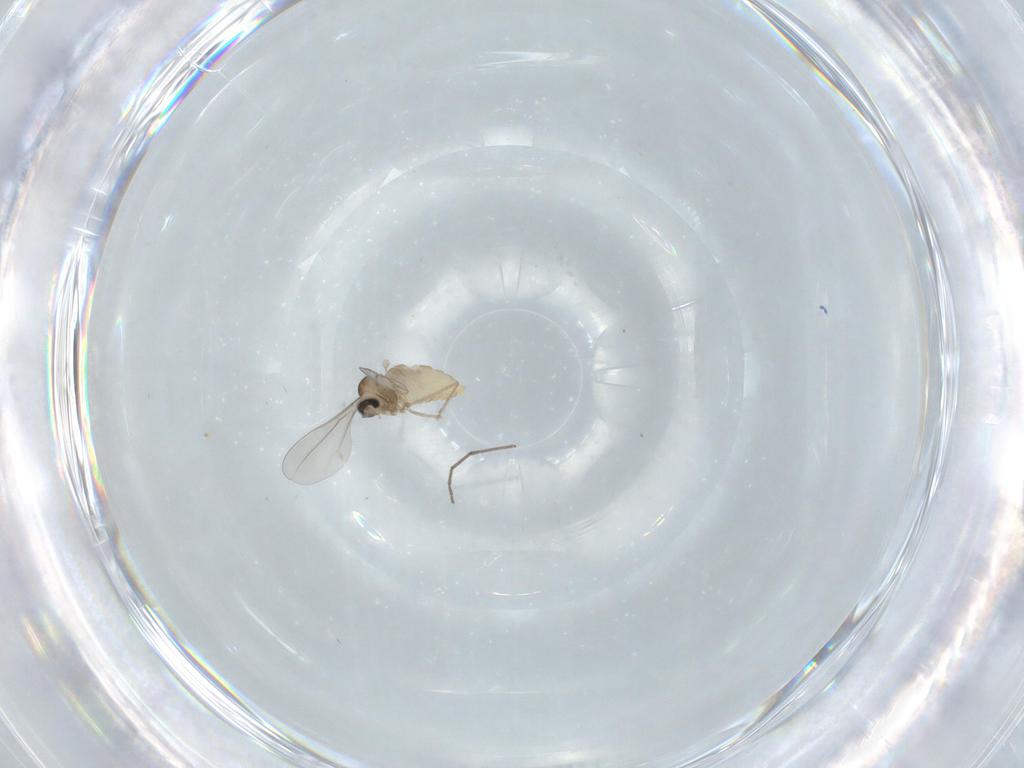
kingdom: Animalia
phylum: Arthropoda
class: Insecta
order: Diptera
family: Chironomidae
